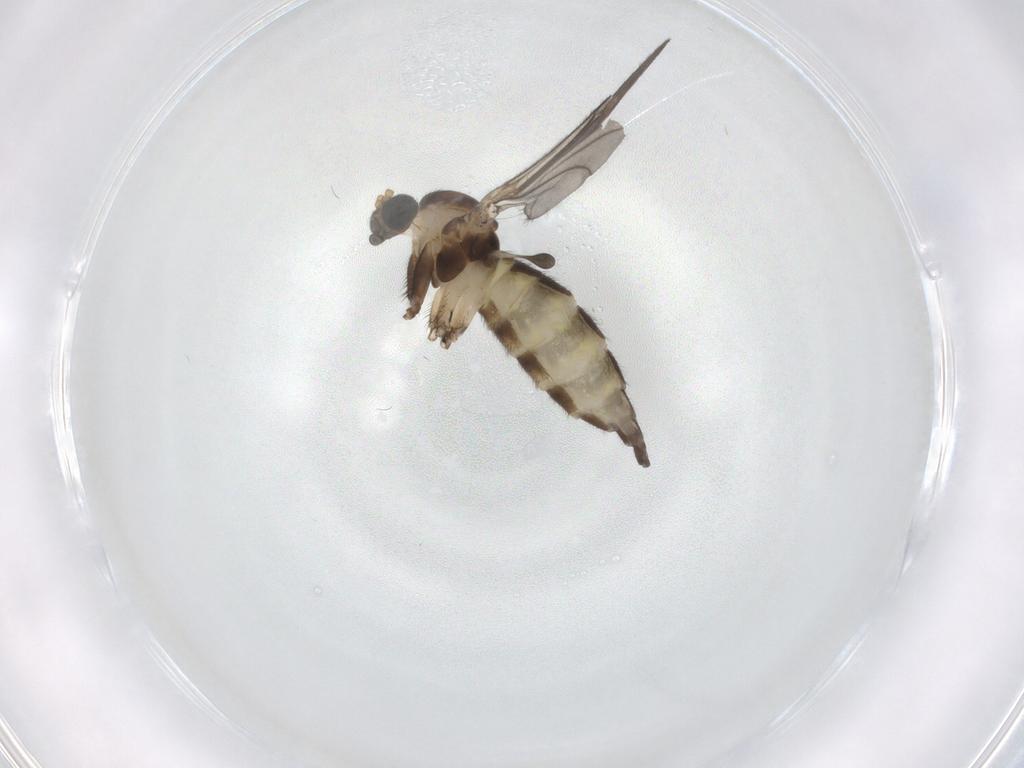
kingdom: Animalia
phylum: Arthropoda
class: Insecta
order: Diptera
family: Sciaridae
